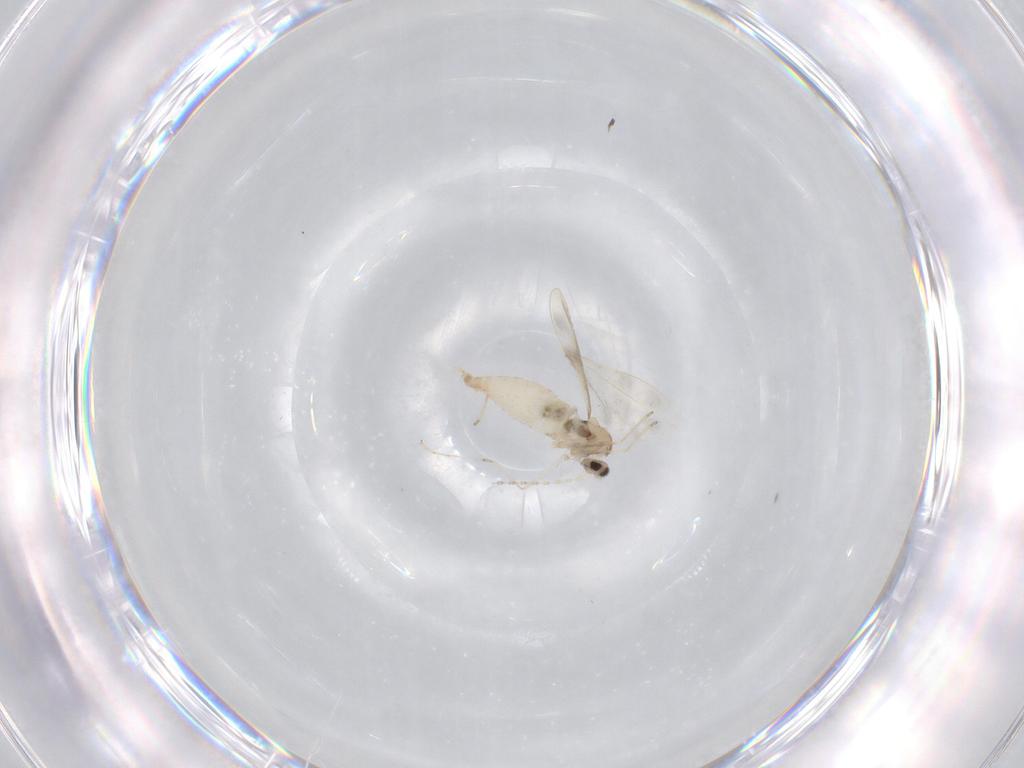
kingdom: Animalia
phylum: Arthropoda
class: Insecta
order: Diptera
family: Cecidomyiidae
